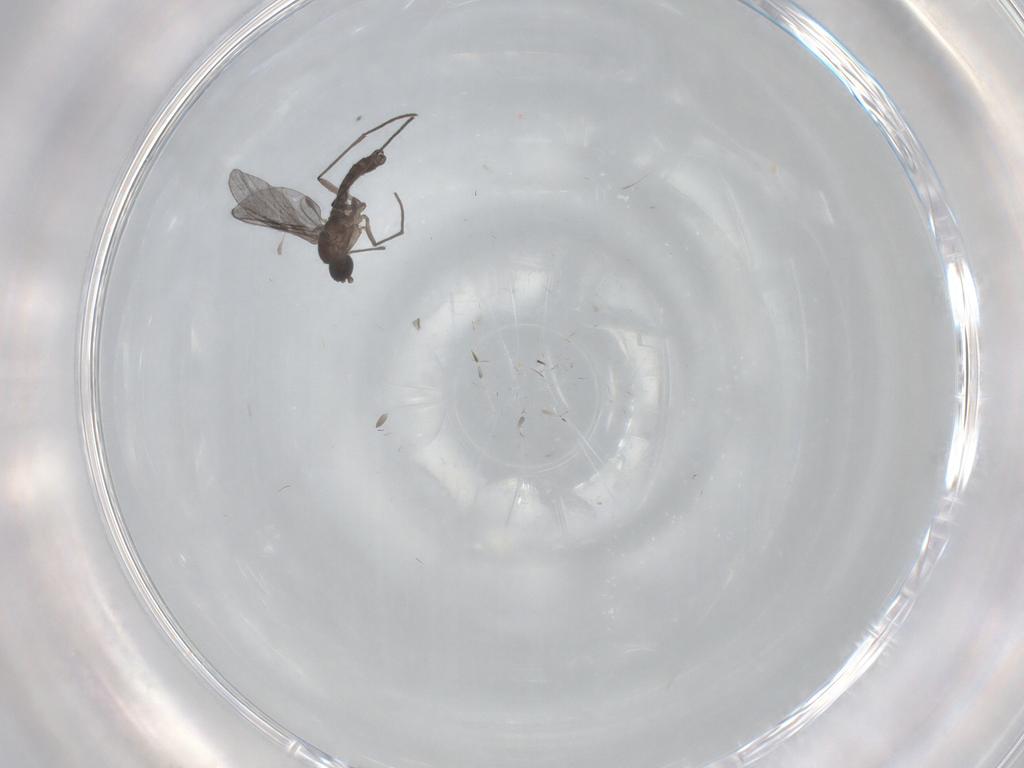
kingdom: Animalia
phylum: Arthropoda
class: Insecta
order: Diptera
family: Cecidomyiidae
